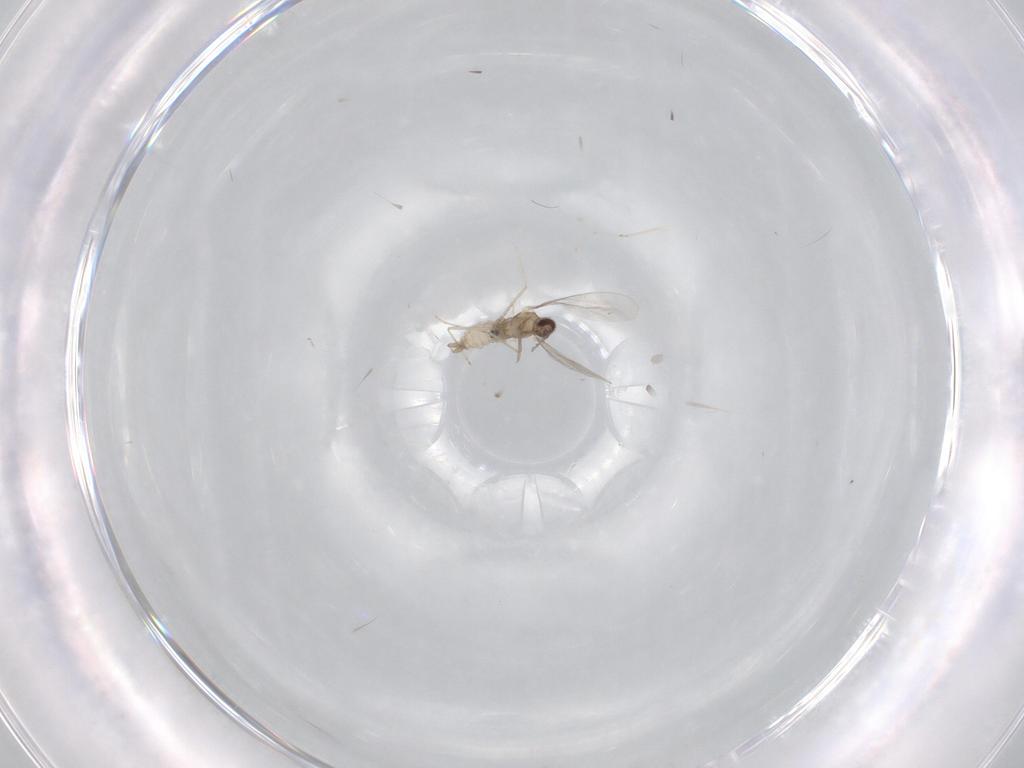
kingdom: Animalia
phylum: Arthropoda
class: Insecta
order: Diptera
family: Cecidomyiidae
